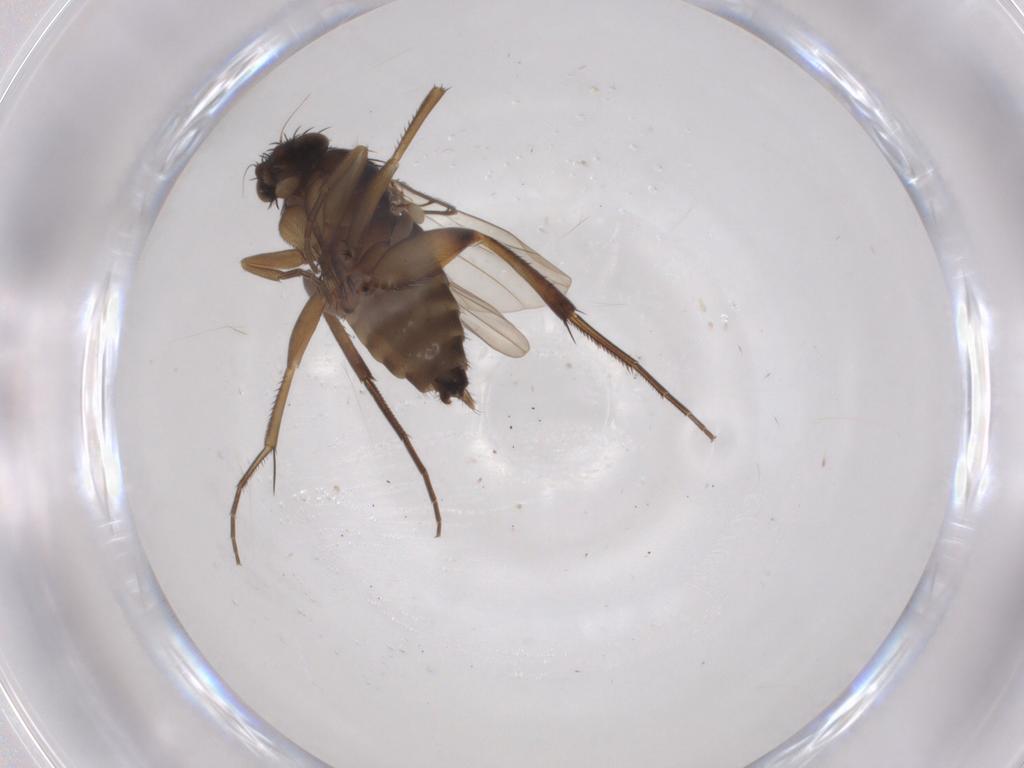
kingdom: Animalia
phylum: Arthropoda
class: Insecta
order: Diptera
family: Phoridae
